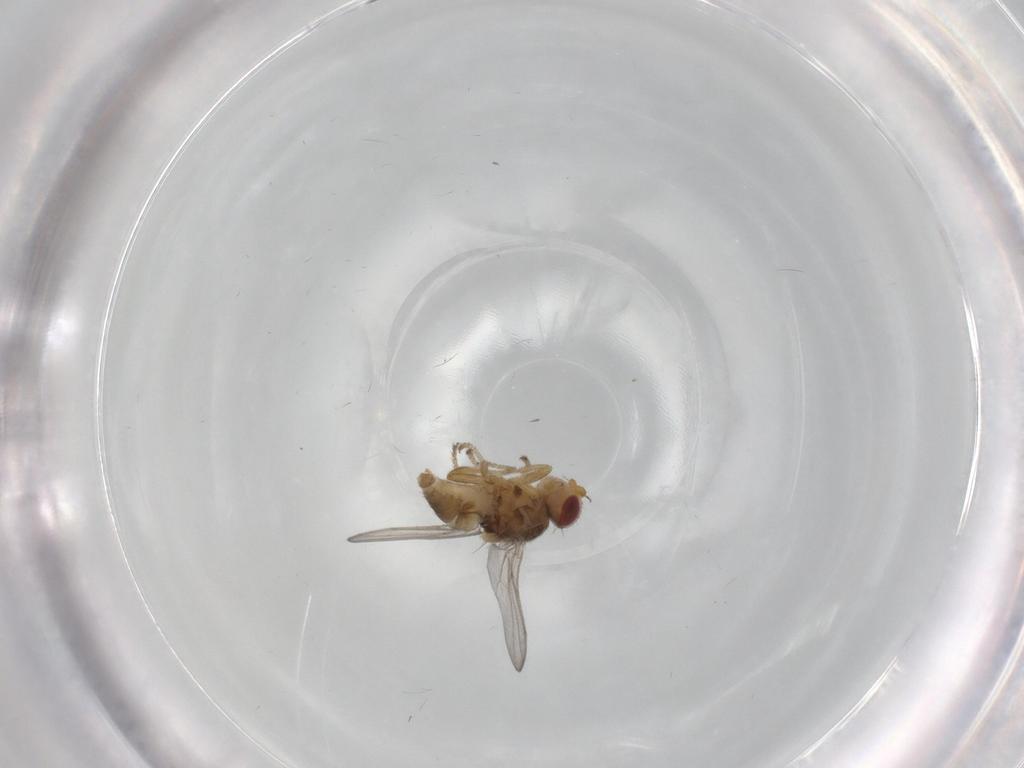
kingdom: Animalia
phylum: Arthropoda
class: Insecta
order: Diptera
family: Chloropidae
